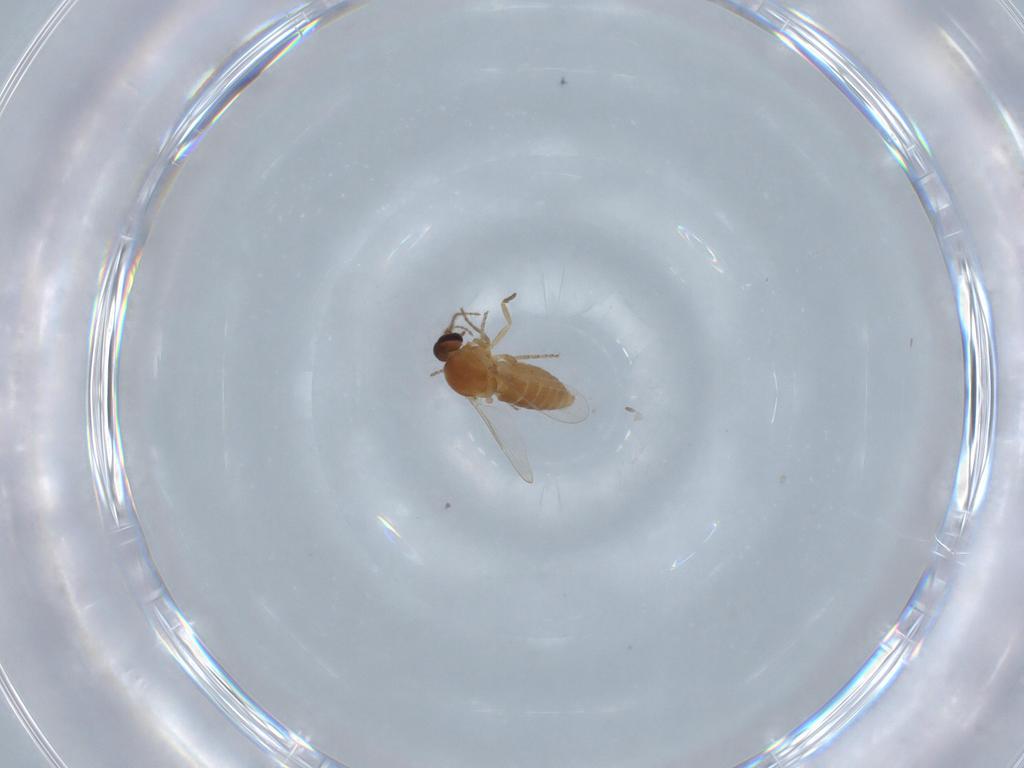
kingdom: Animalia
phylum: Arthropoda
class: Insecta
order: Diptera
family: Ceratopogonidae
